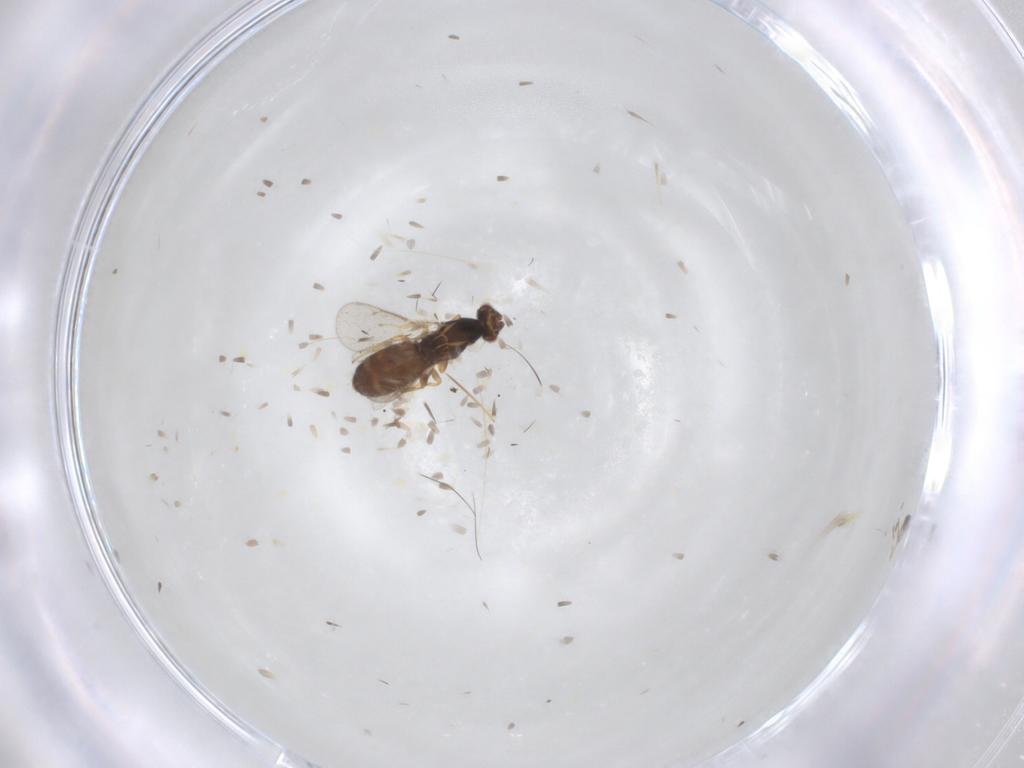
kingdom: Animalia
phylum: Arthropoda
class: Insecta
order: Hymenoptera
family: Eulophidae
